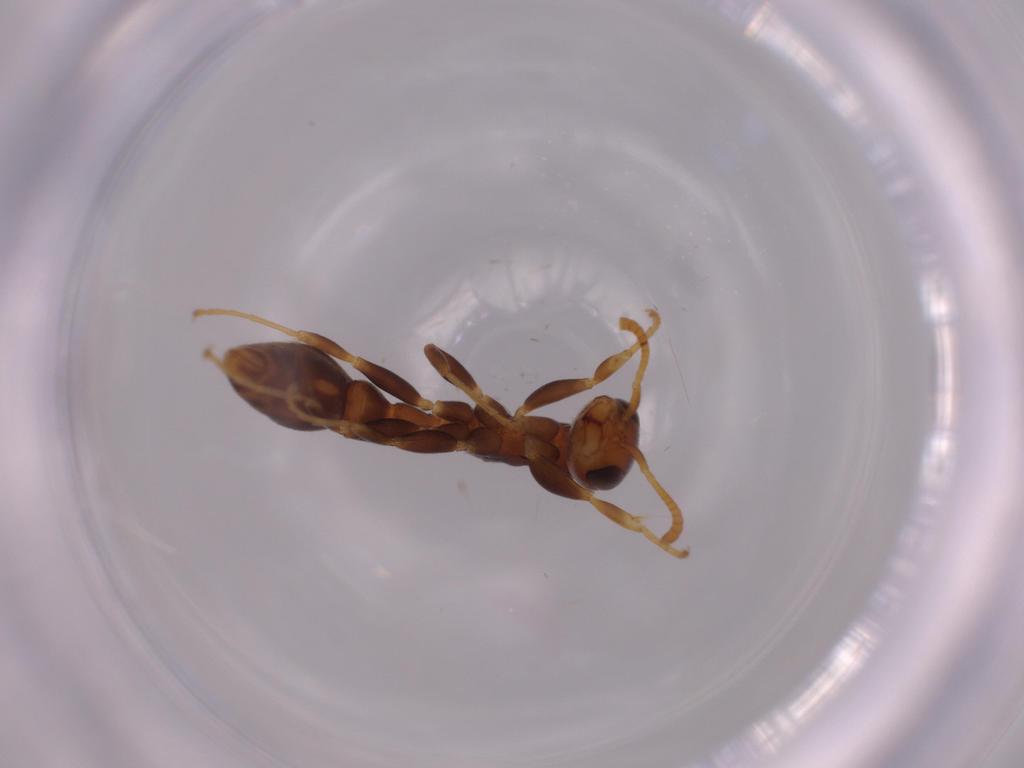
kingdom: Animalia
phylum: Arthropoda
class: Insecta
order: Hymenoptera
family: Formicidae
